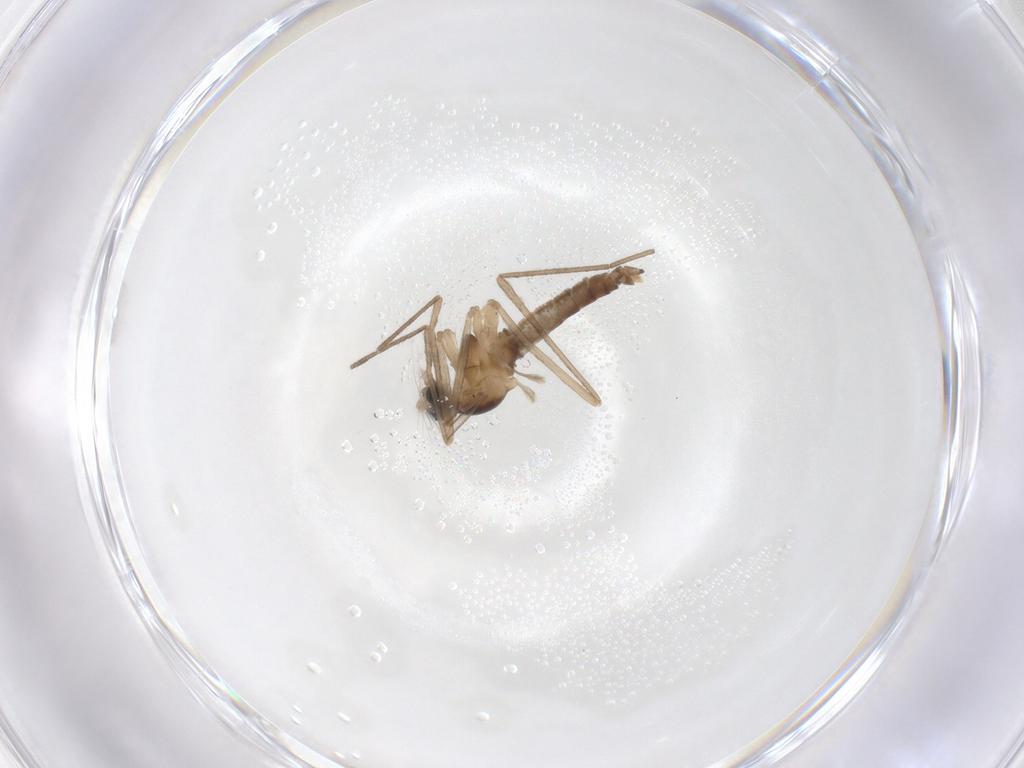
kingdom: Animalia
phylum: Arthropoda
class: Insecta
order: Diptera
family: Cecidomyiidae
